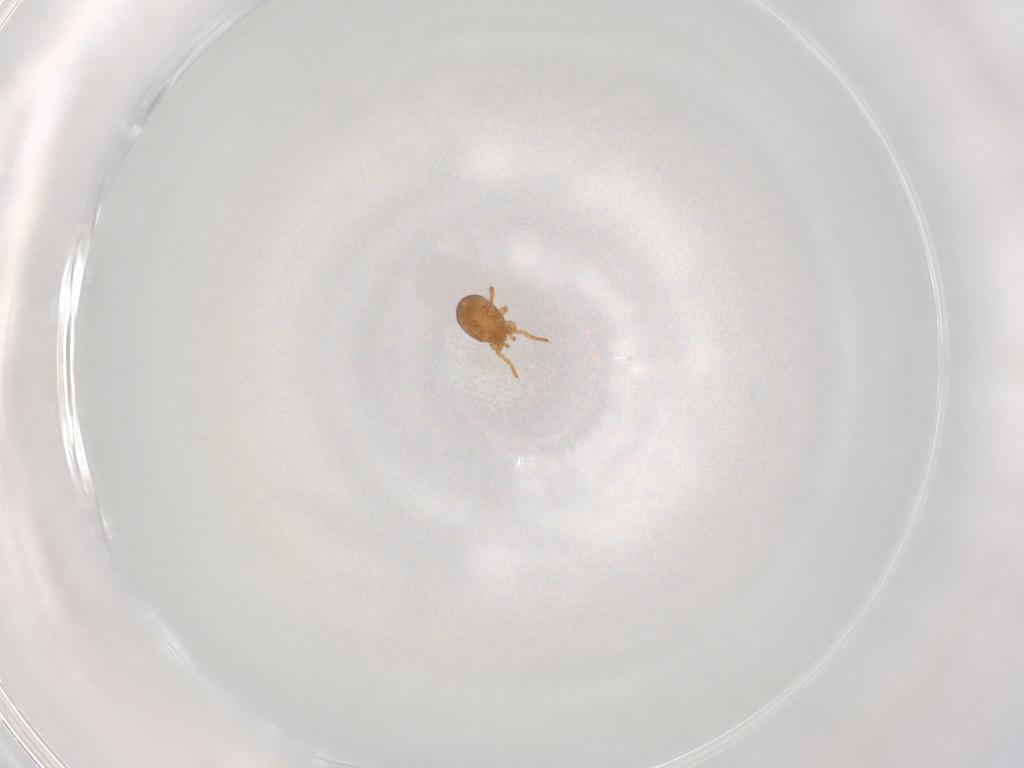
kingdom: Animalia
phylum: Arthropoda
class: Arachnida
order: Mesostigmata
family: Parasitidae
